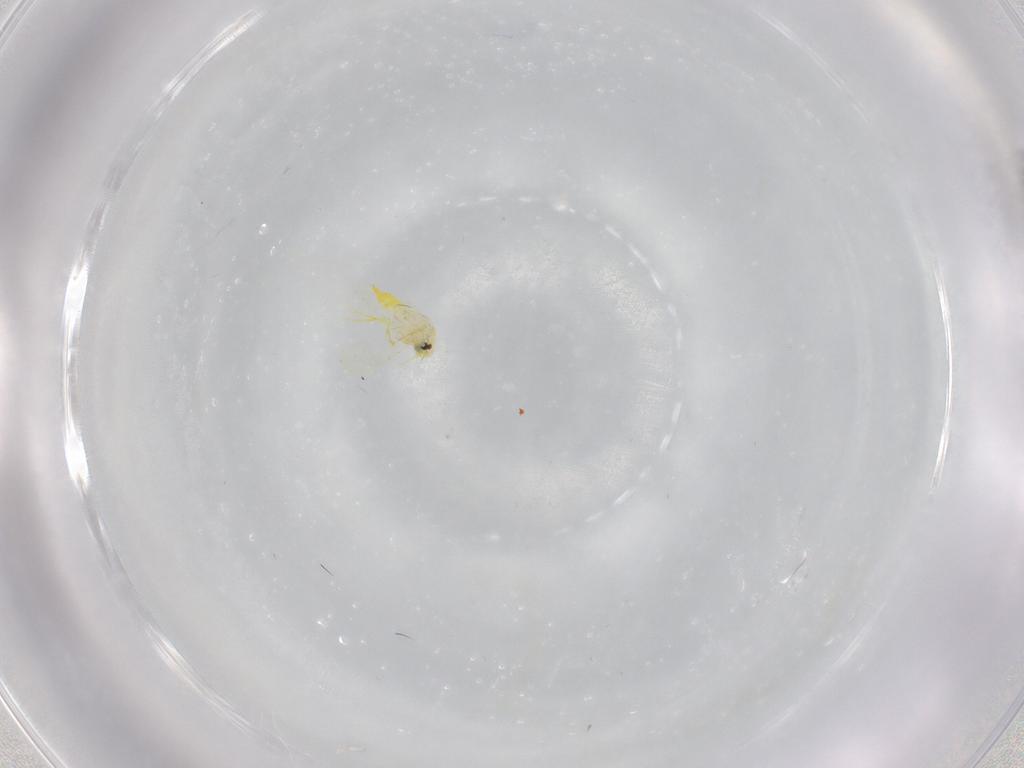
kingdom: Animalia
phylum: Arthropoda
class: Insecta
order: Hemiptera
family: Aleyrodidae
